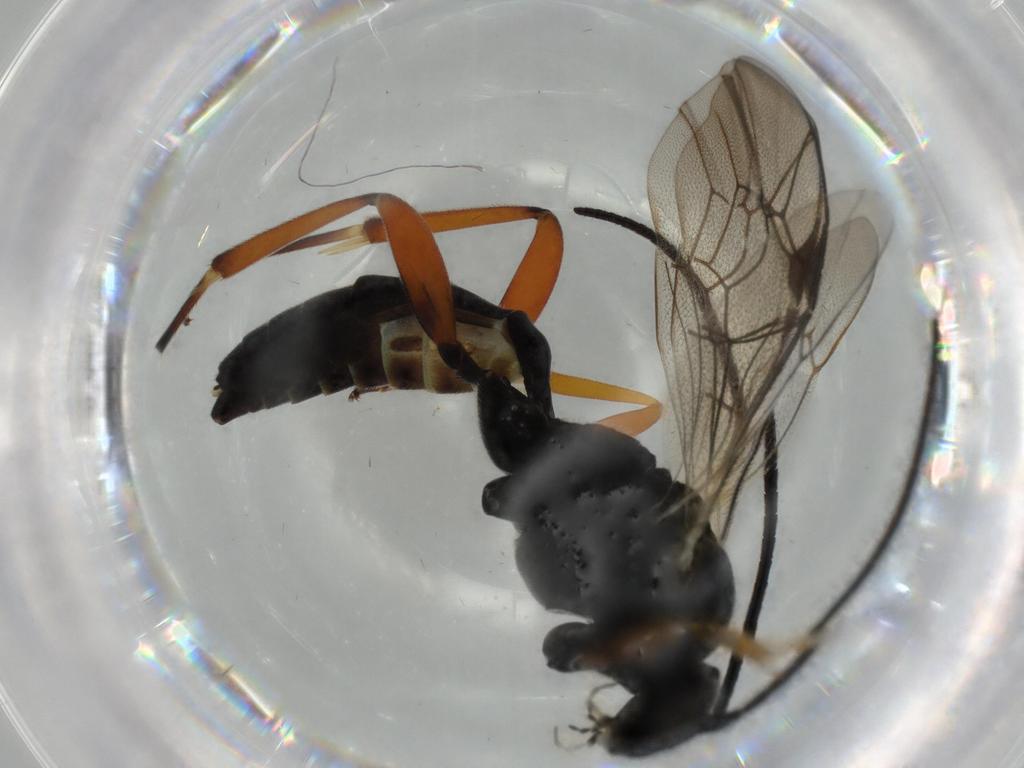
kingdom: Animalia
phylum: Arthropoda
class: Insecta
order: Hymenoptera
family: Ichneumonidae
